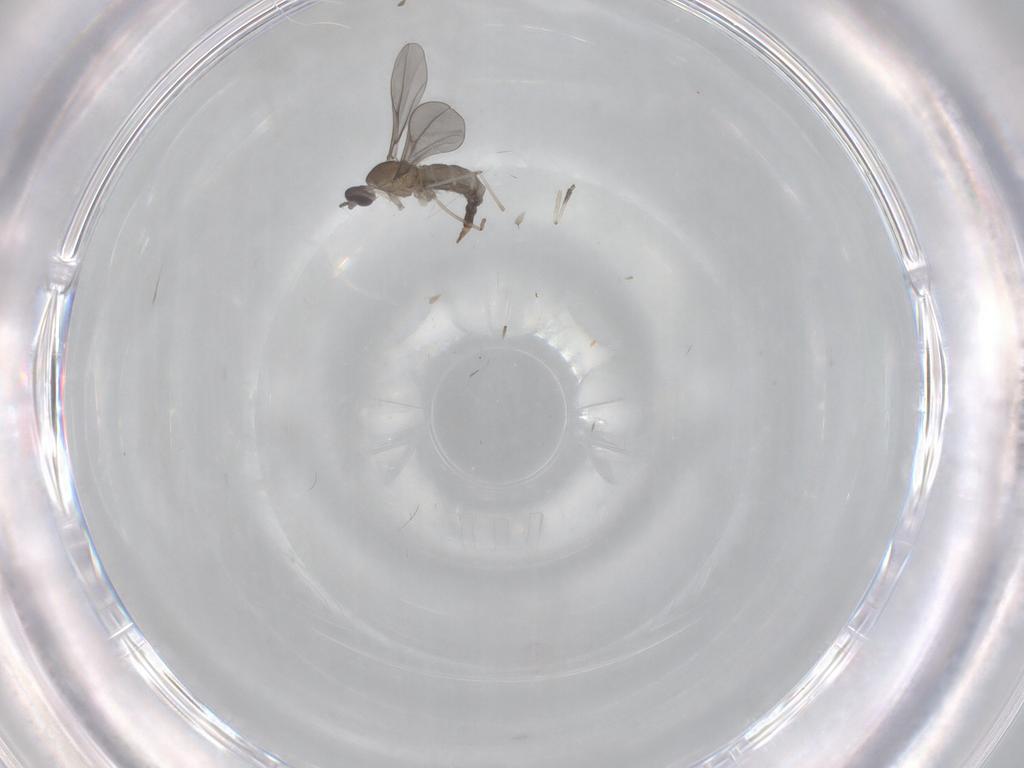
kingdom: Animalia
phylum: Arthropoda
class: Insecta
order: Diptera
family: Cecidomyiidae
